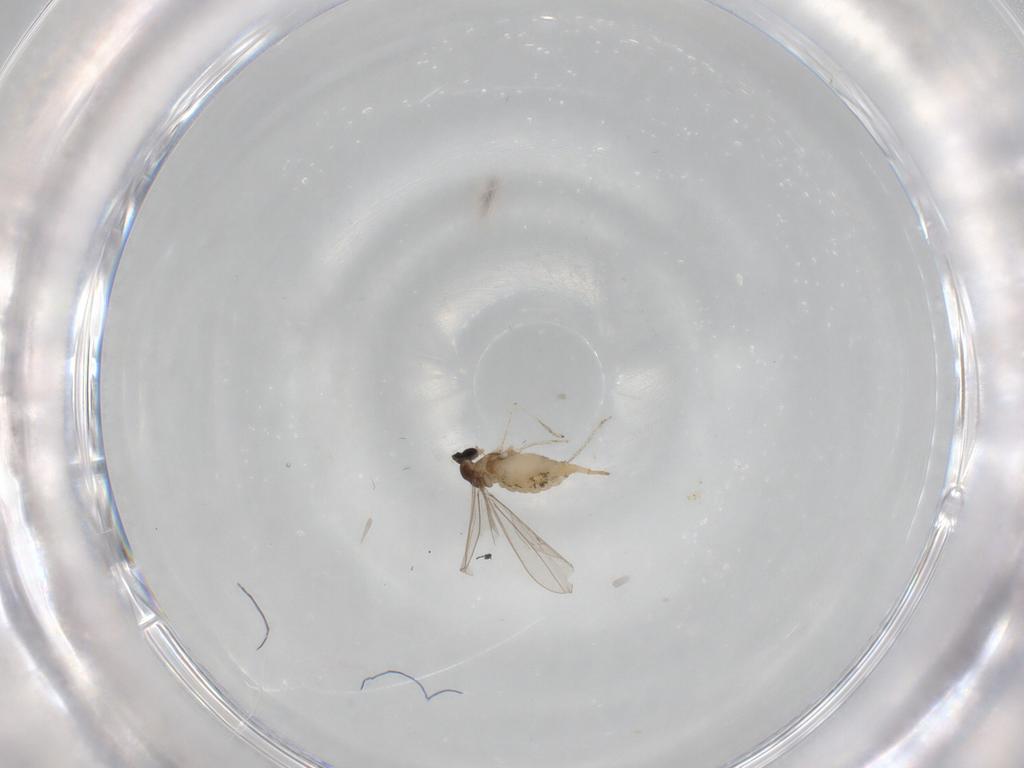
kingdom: Animalia
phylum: Arthropoda
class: Insecta
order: Diptera
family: Cecidomyiidae
